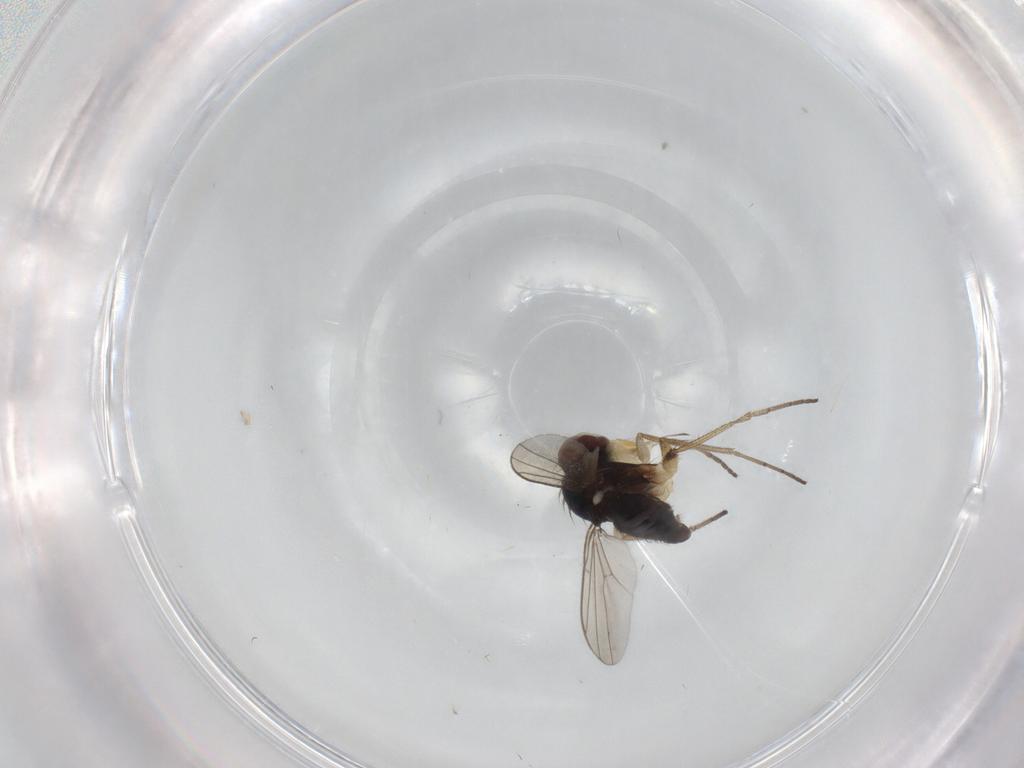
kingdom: Animalia
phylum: Arthropoda
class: Insecta
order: Diptera
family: Dolichopodidae
